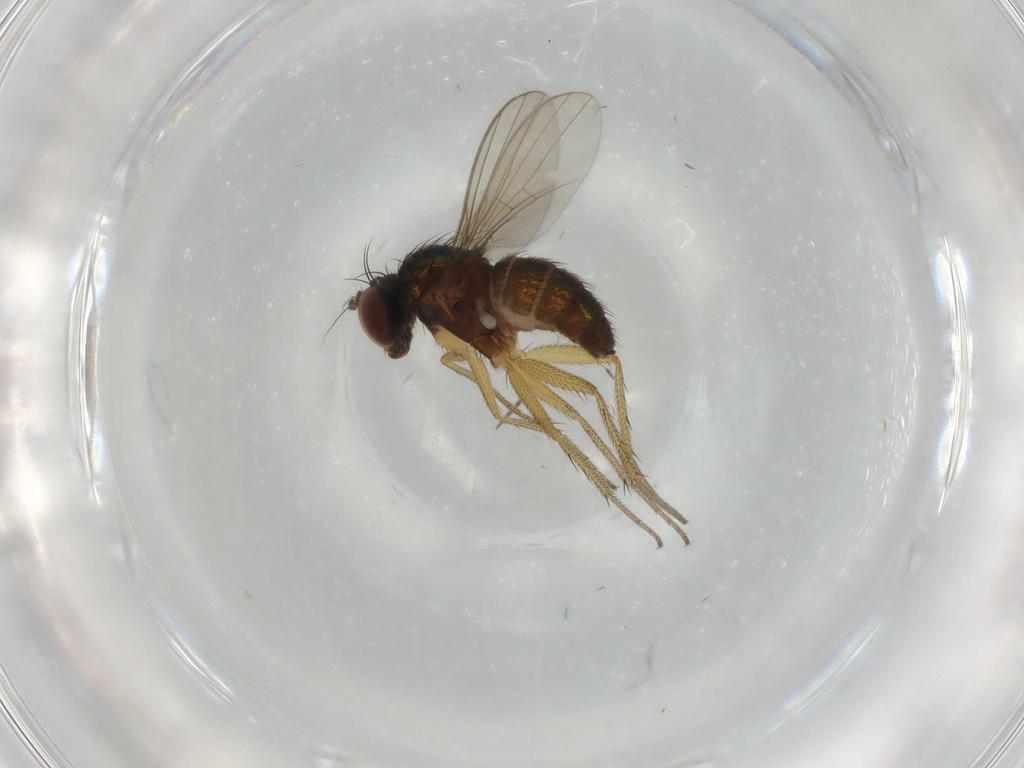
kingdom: Animalia
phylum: Arthropoda
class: Insecta
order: Diptera
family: Dolichopodidae
